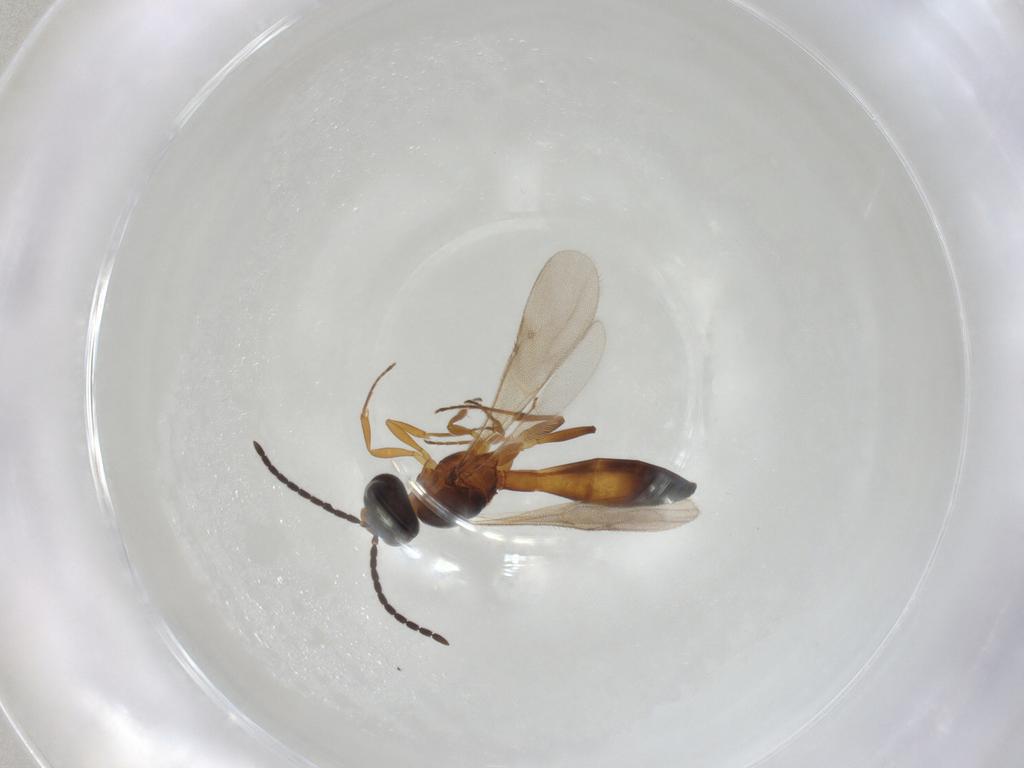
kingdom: Animalia
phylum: Arthropoda
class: Insecta
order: Hymenoptera
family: Scelionidae
